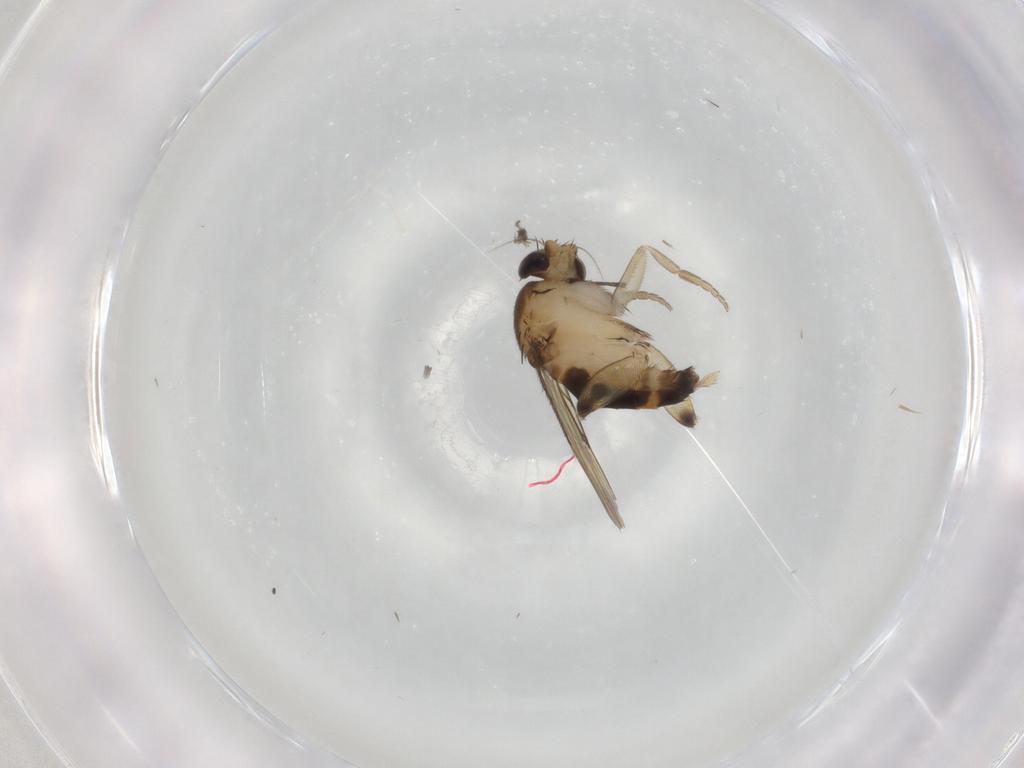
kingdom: Animalia
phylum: Arthropoda
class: Insecta
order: Diptera
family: Phoridae
